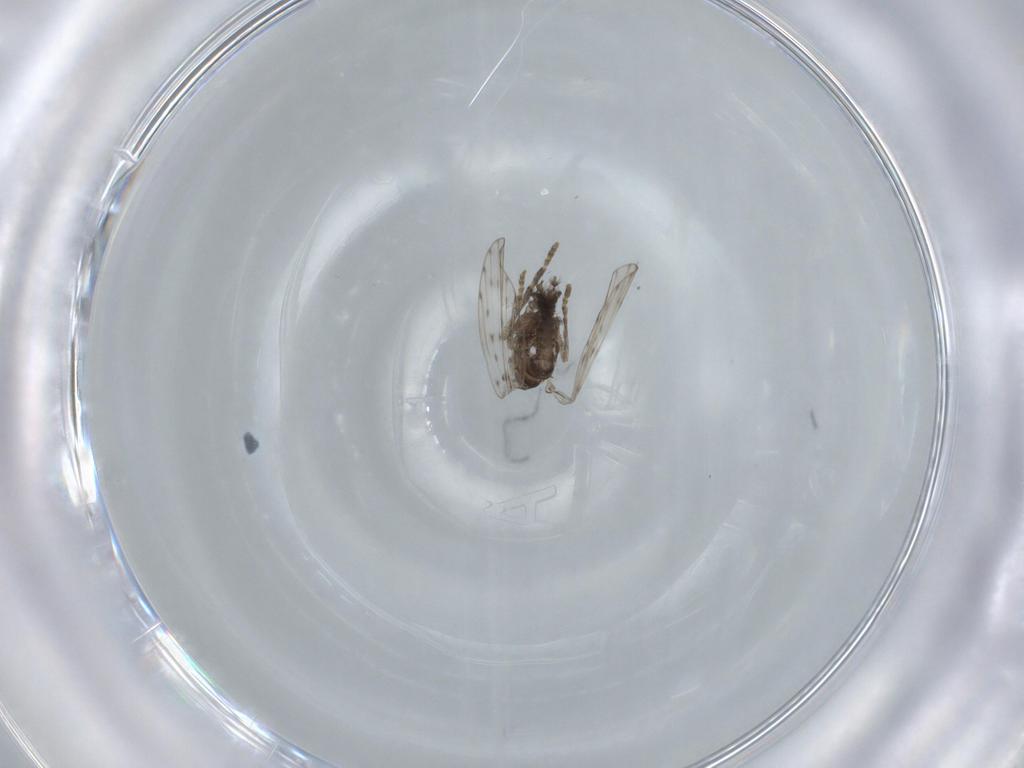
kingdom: Animalia
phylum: Arthropoda
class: Insecta
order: Diptera
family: Psychodidae
